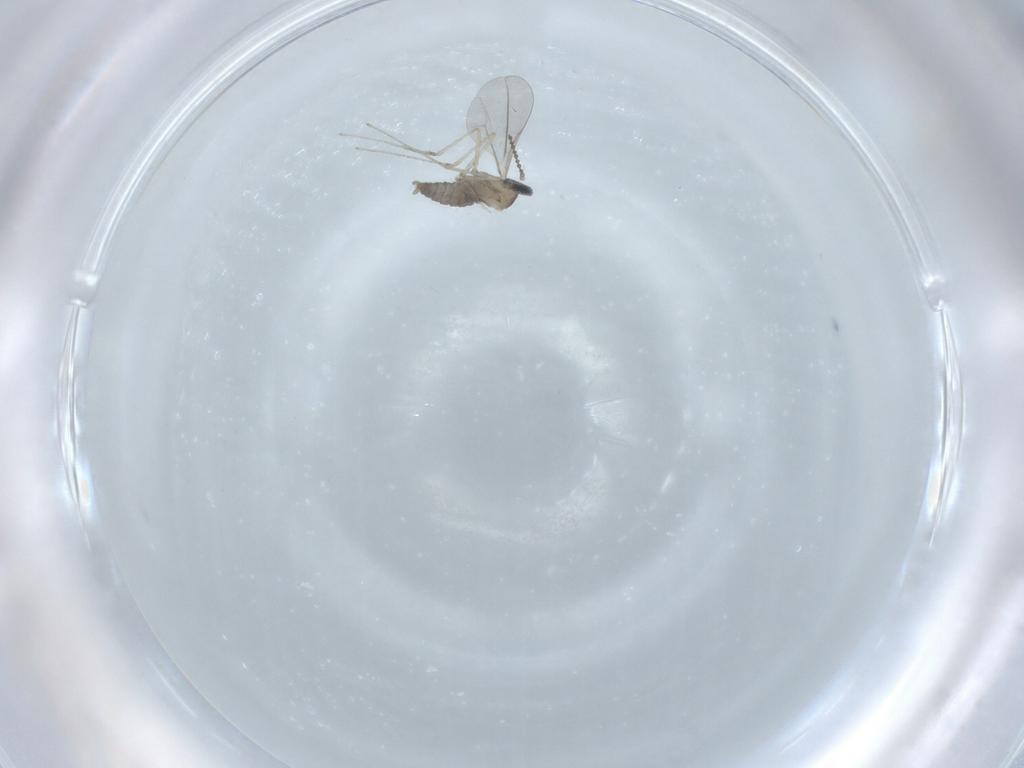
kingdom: Animalia
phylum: Arthropoda
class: Insecta
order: Diptera
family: Cecidomyiidae
